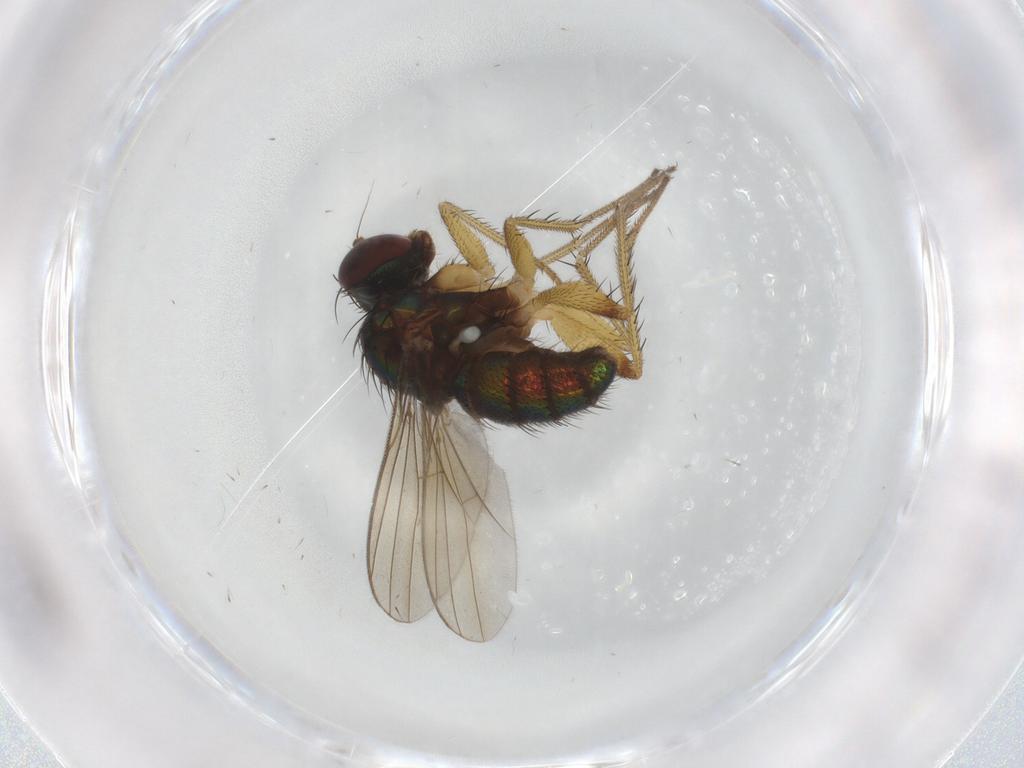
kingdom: Animalia
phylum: Arthropoda
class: Insecta
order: Diptera
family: Dolichopodidae
